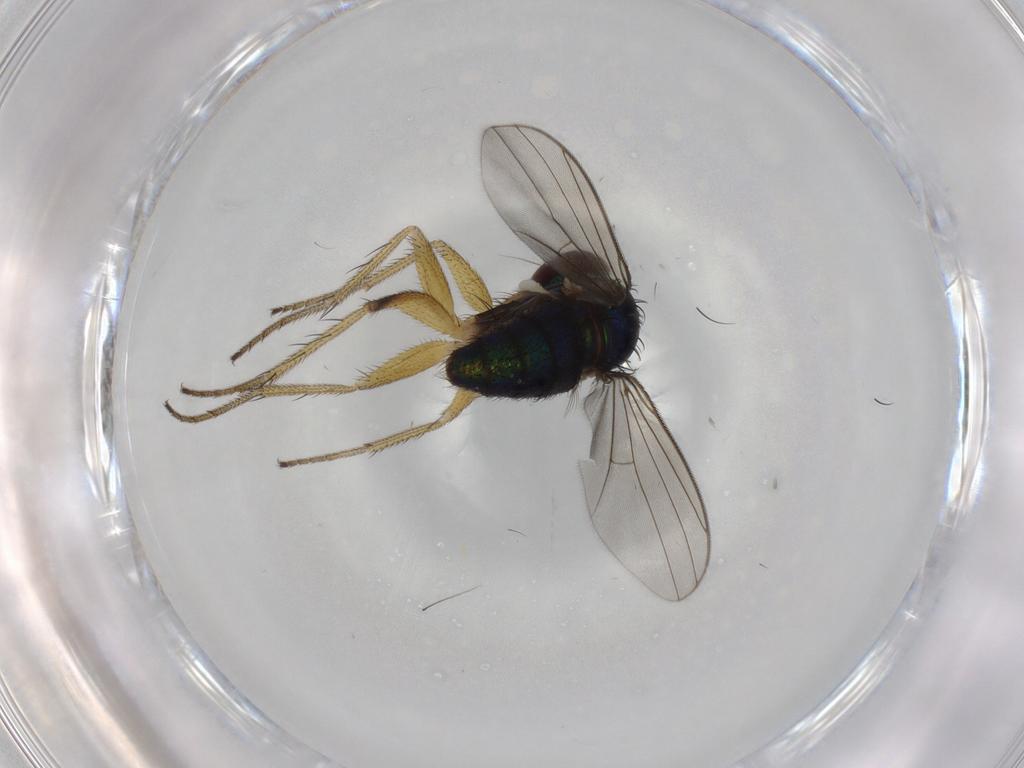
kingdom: Animalia
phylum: Arthropoda
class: Insecta
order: Diptera
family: Dolichopodidae
